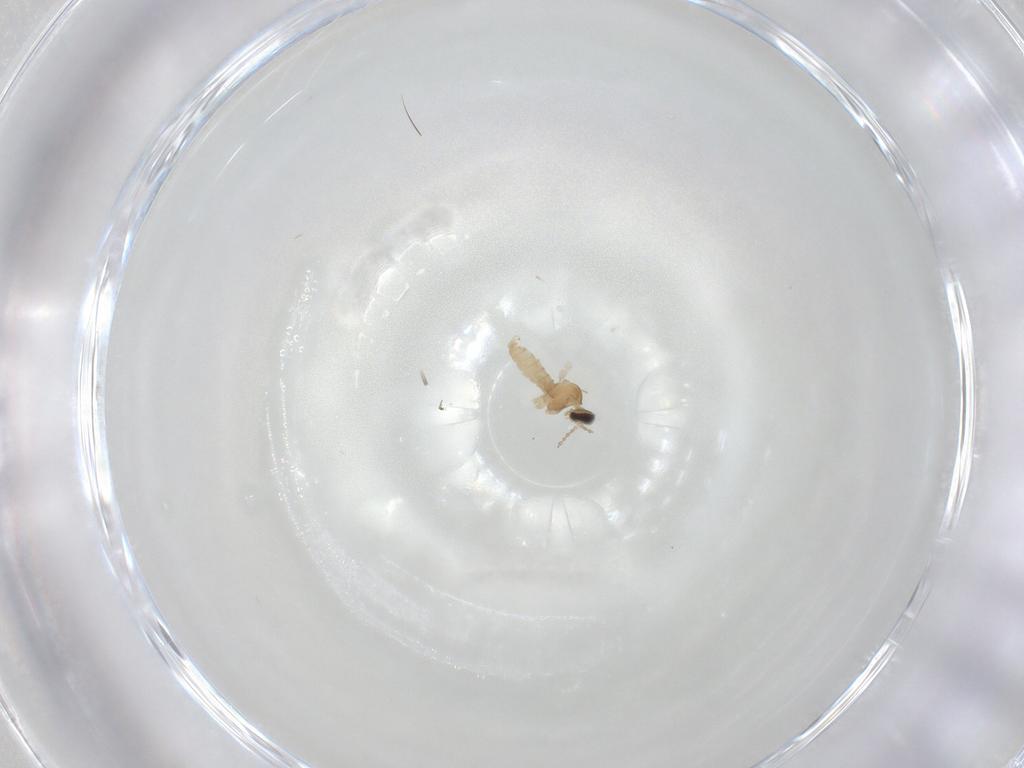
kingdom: Animalia
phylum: Arthropoda
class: Insecta
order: Diptera
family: Cecidomyiidae
